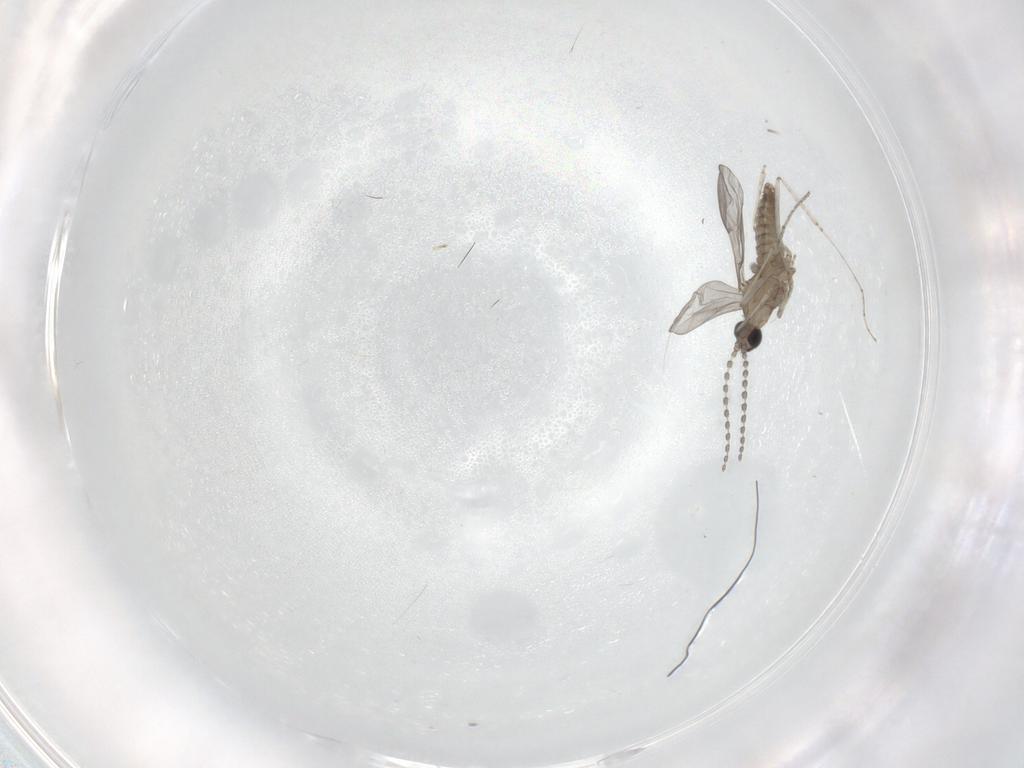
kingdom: Animalia
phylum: Arthropoda
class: Insecta
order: Diptera
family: Cecidomyiidae
